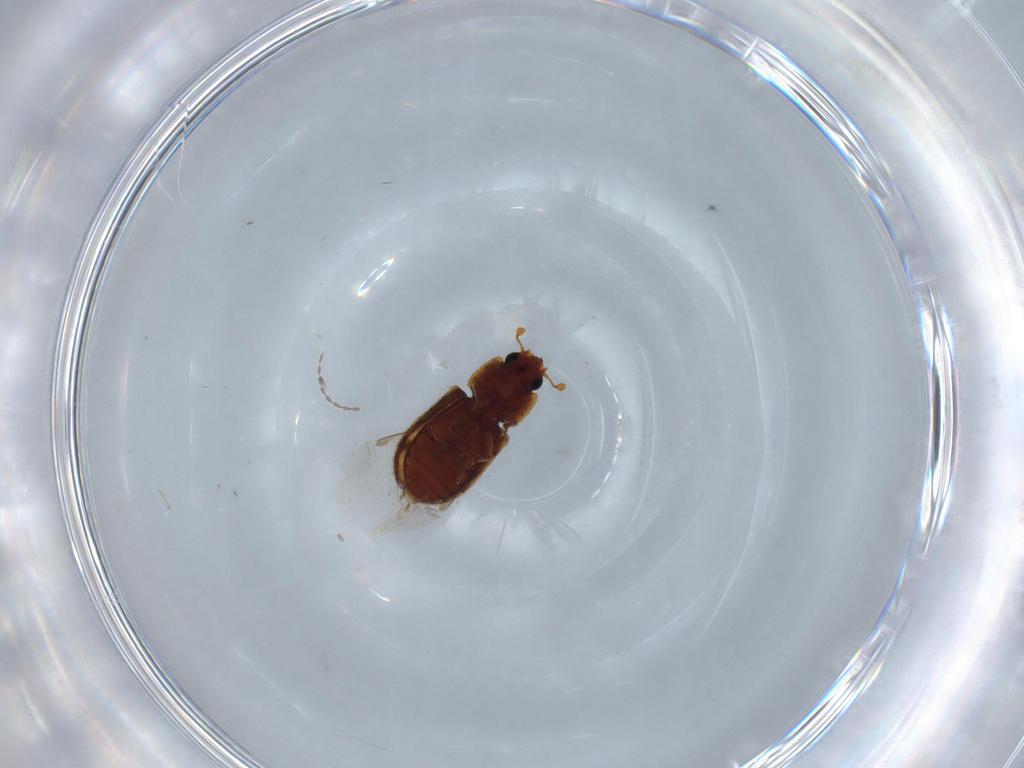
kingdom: Animalia
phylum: Arthropoda
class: Insecta
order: Coleoptera
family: Zopheridae
